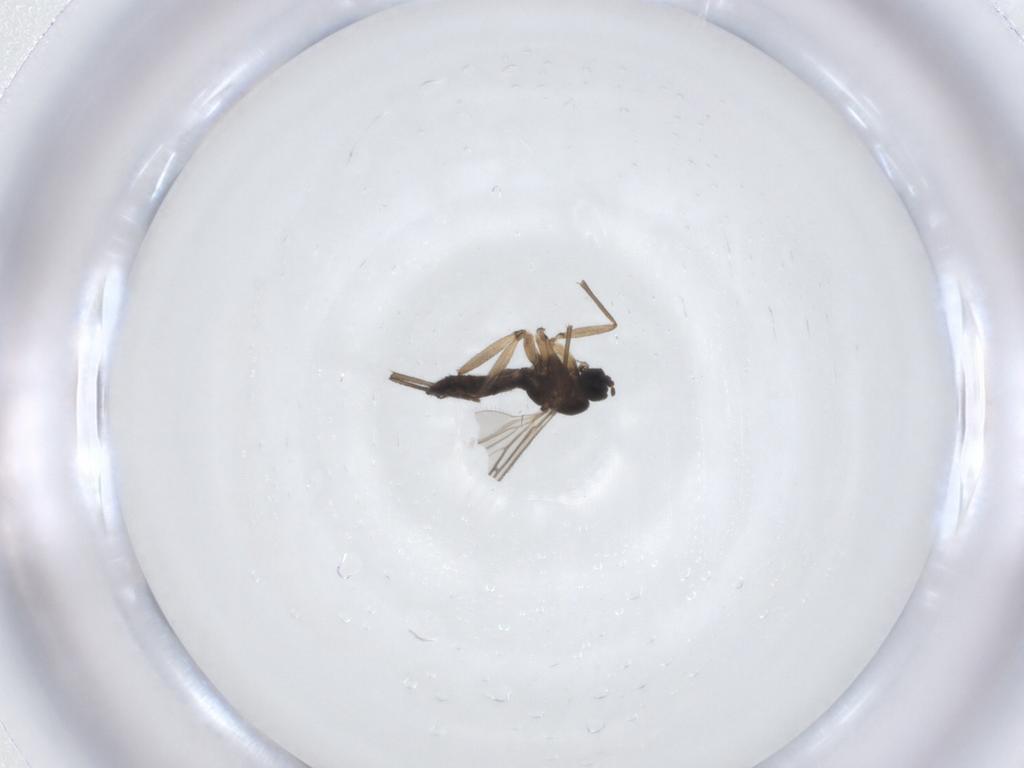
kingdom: Animalia
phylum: Arthropoda
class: Insecta
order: Diptera
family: Sciaridae
